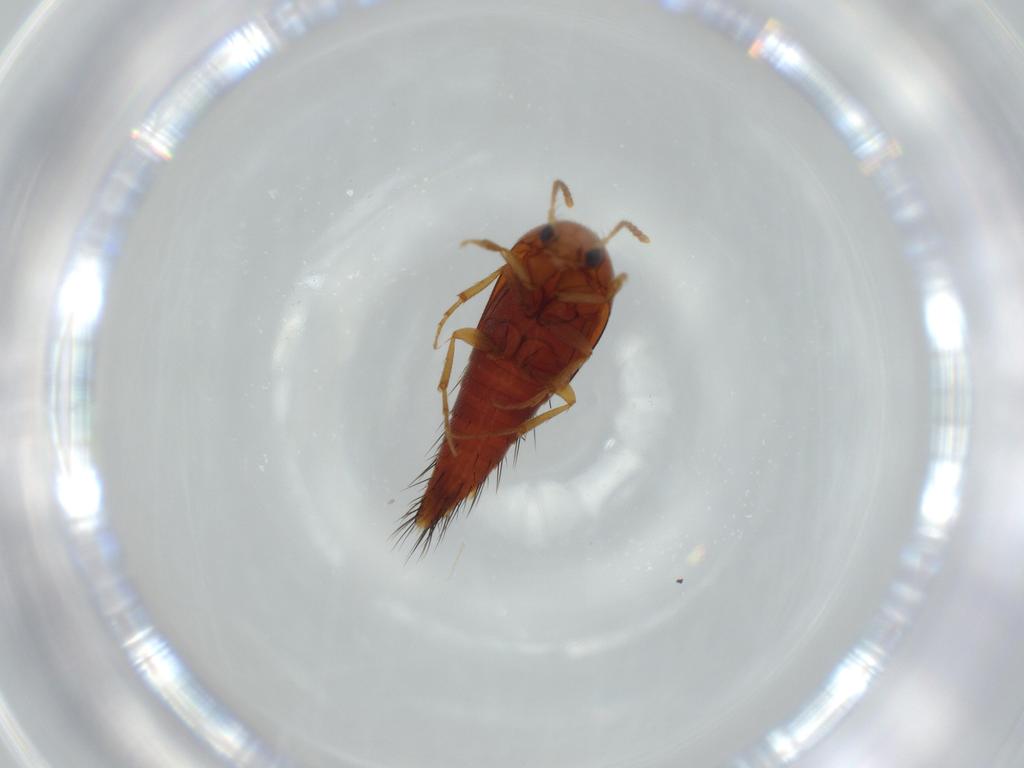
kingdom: Animalia
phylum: Arthropoda
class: Insecta
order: Coleoptera
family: Staphylinidae
